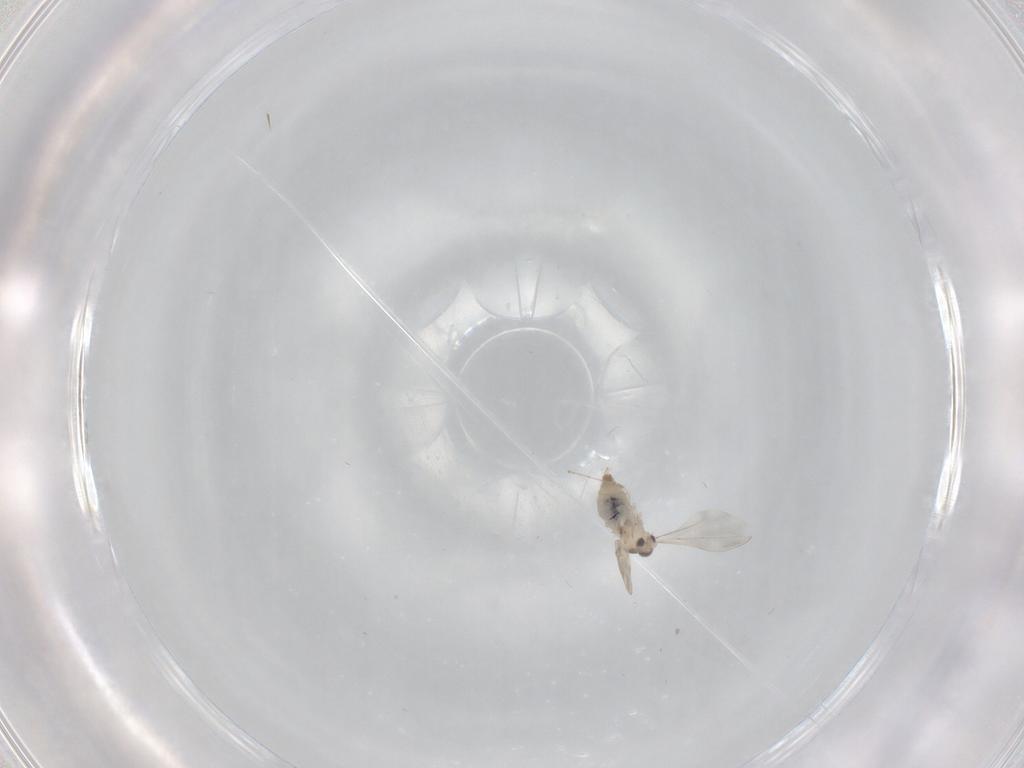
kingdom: Animalia
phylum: Arthropoda
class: Insecta
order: Diptera
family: Cecidomyiidae
